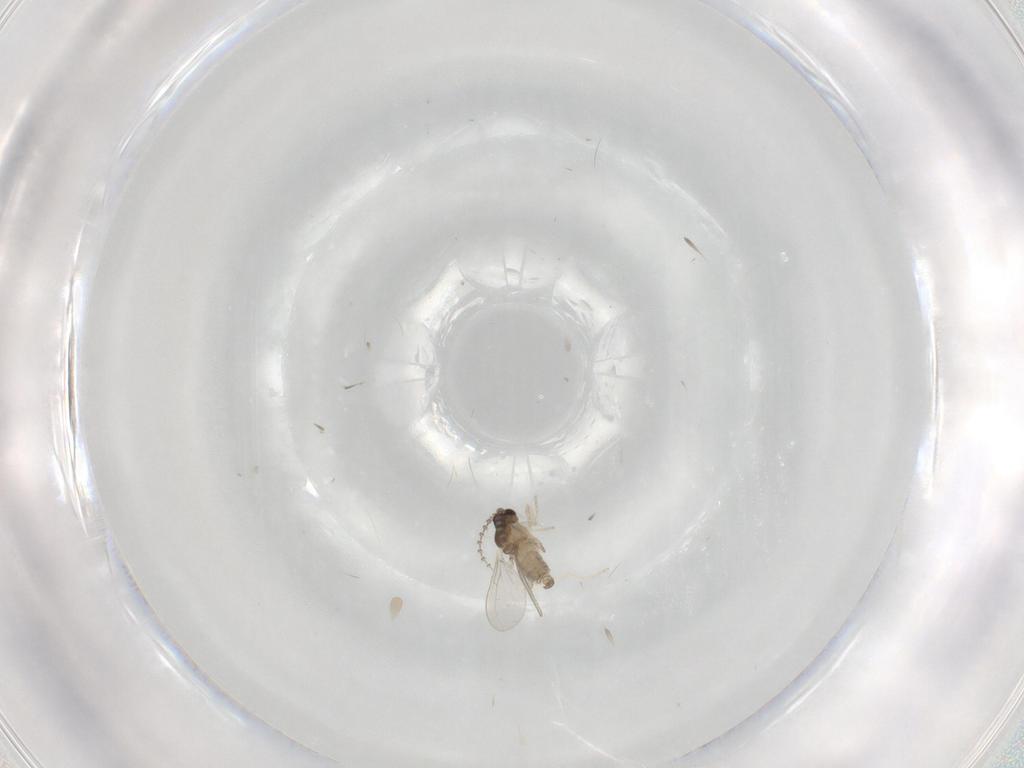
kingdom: Animalia
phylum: Arthropoda
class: Insecta
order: Diptera
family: Cecidomyiidae
